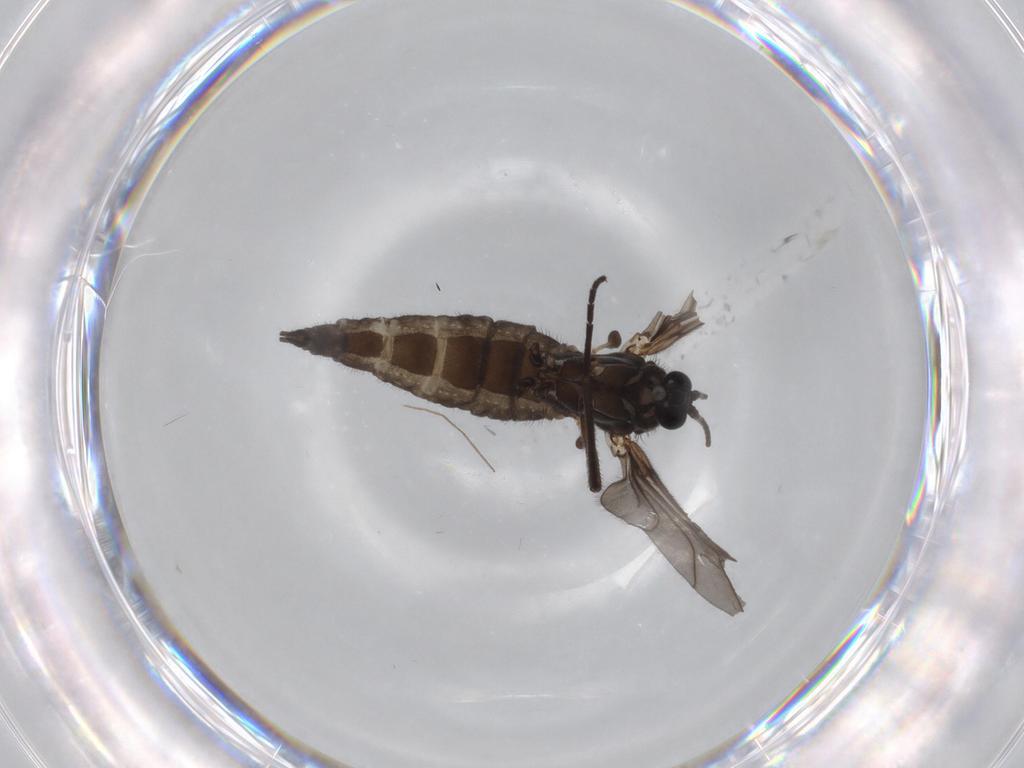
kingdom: Animalia
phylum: Arthropoda
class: Insecta
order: Diptera
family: Sciaridae
